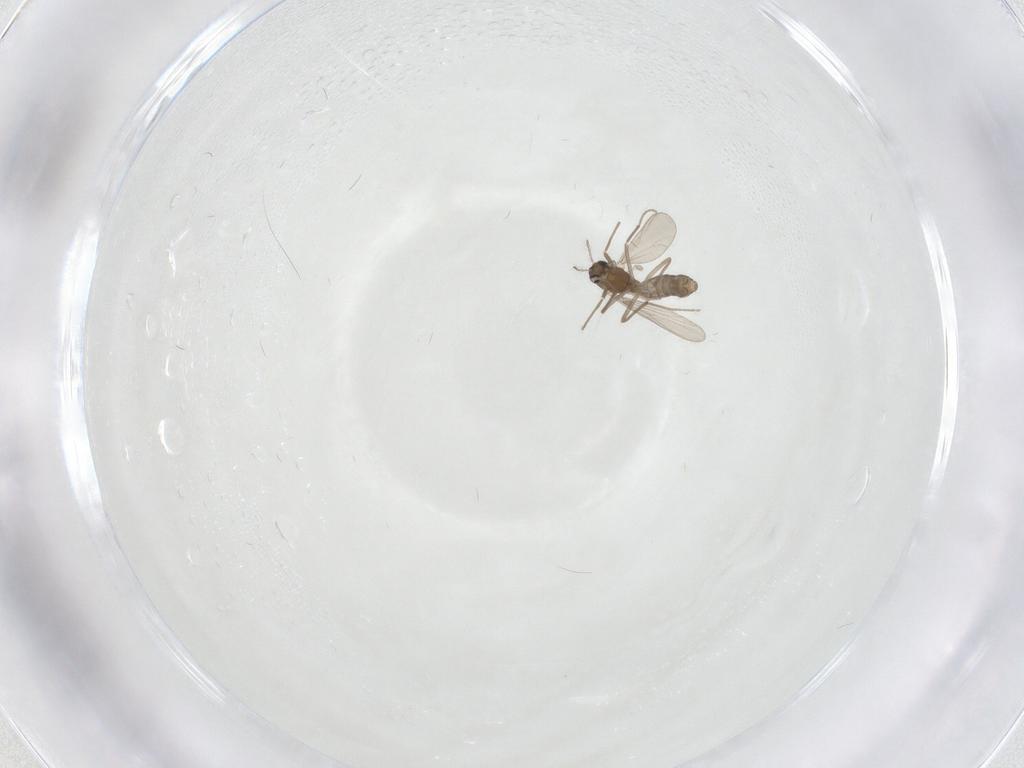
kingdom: Animalia
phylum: Arthropoda
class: Insecta
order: Diptera
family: Chironomidae
